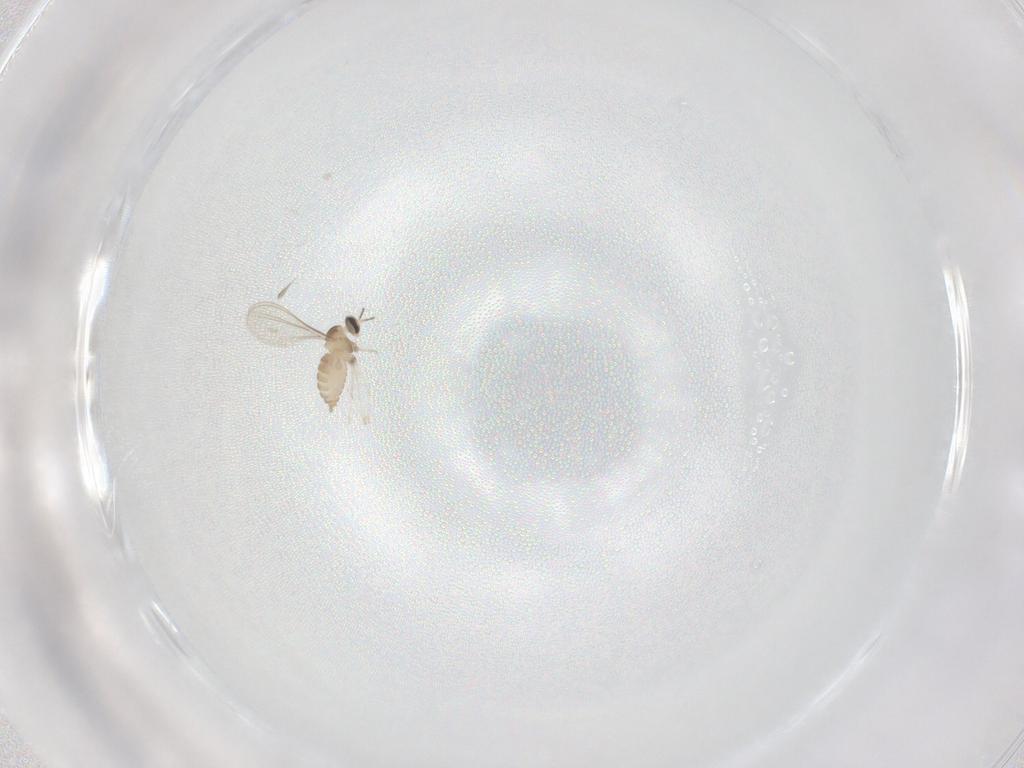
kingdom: Animalia
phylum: Arthropoda
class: Insecta
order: Diptera
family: Cecidomyiidae
